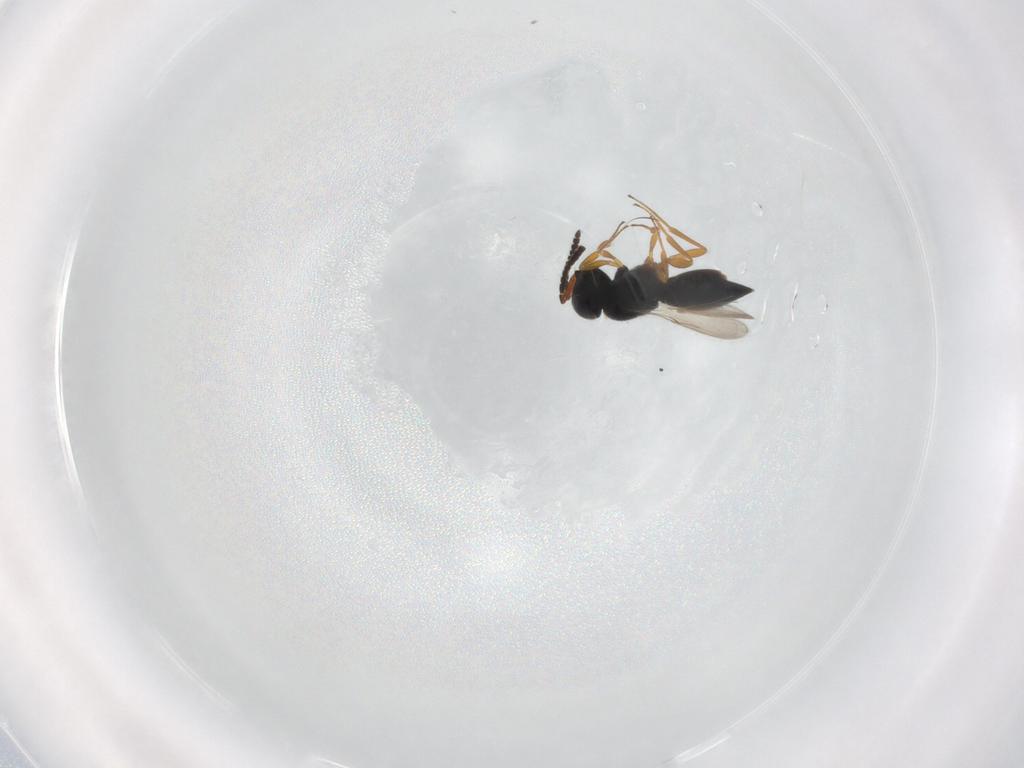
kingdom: Animalia
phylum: Arthropoda
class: Insecta
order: Hymenoptera
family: Scelionidae
